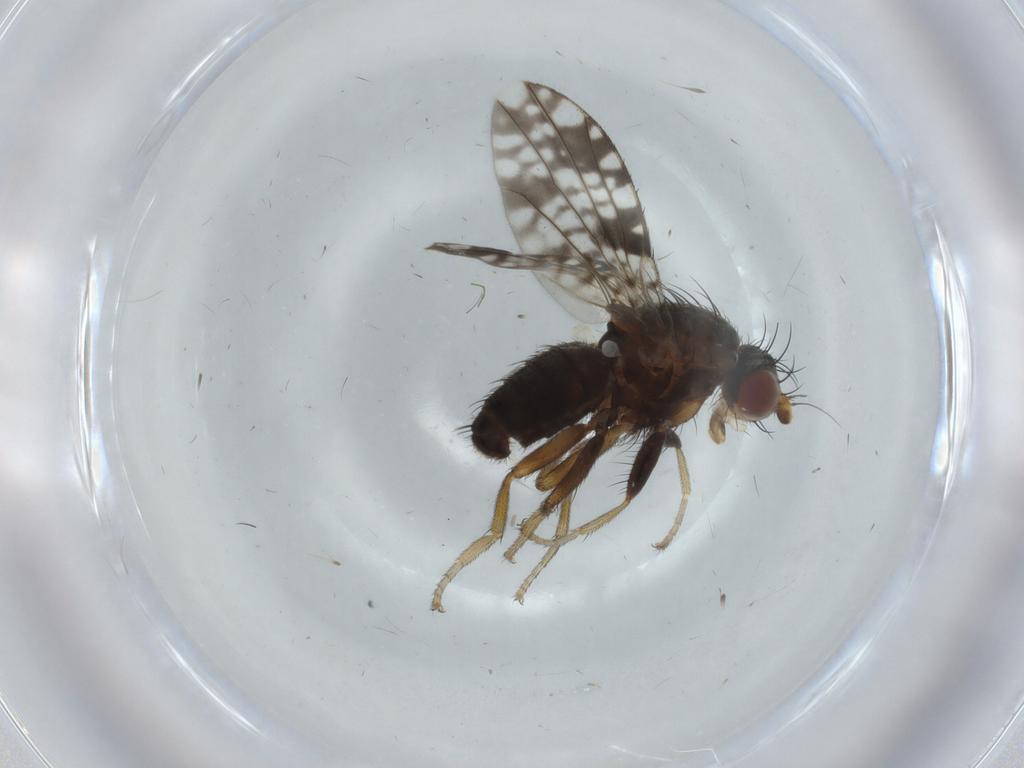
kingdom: Animalia
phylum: Arthropoda
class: Insecta
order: Diptera
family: Tephritidae
